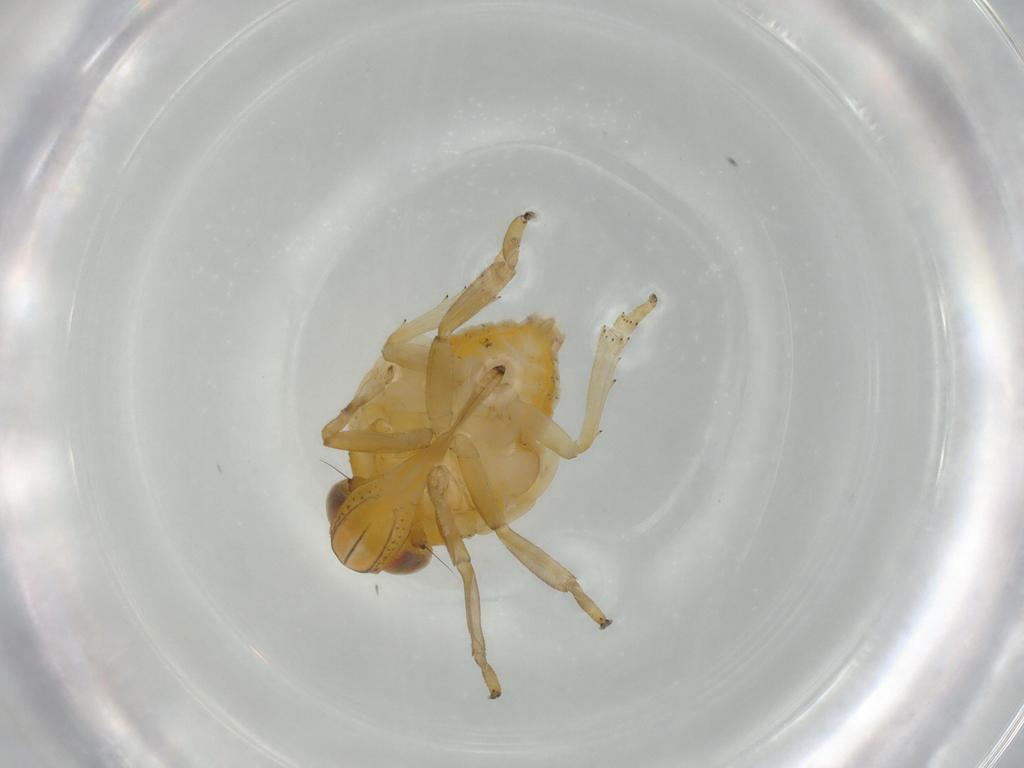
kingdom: Animalia
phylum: Arthropoda
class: Insecta
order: Hemiptera
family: Issidae
